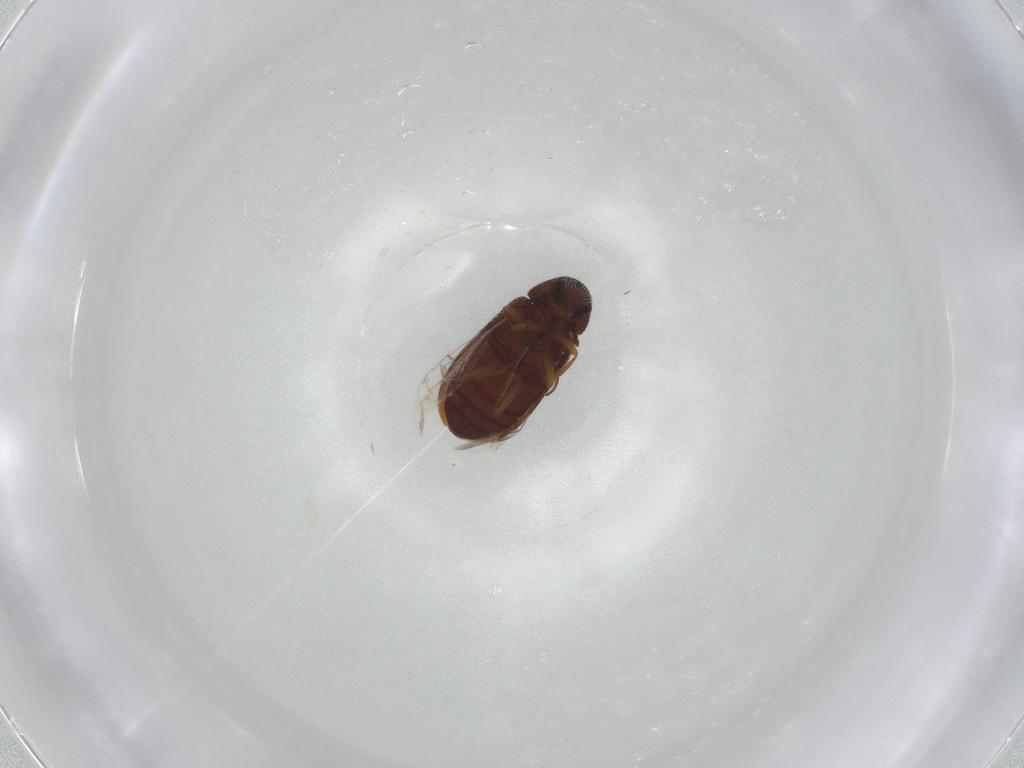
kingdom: Animalia
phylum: Arthropoda
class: Insecta
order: Coleoptera
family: Rhadalidae
